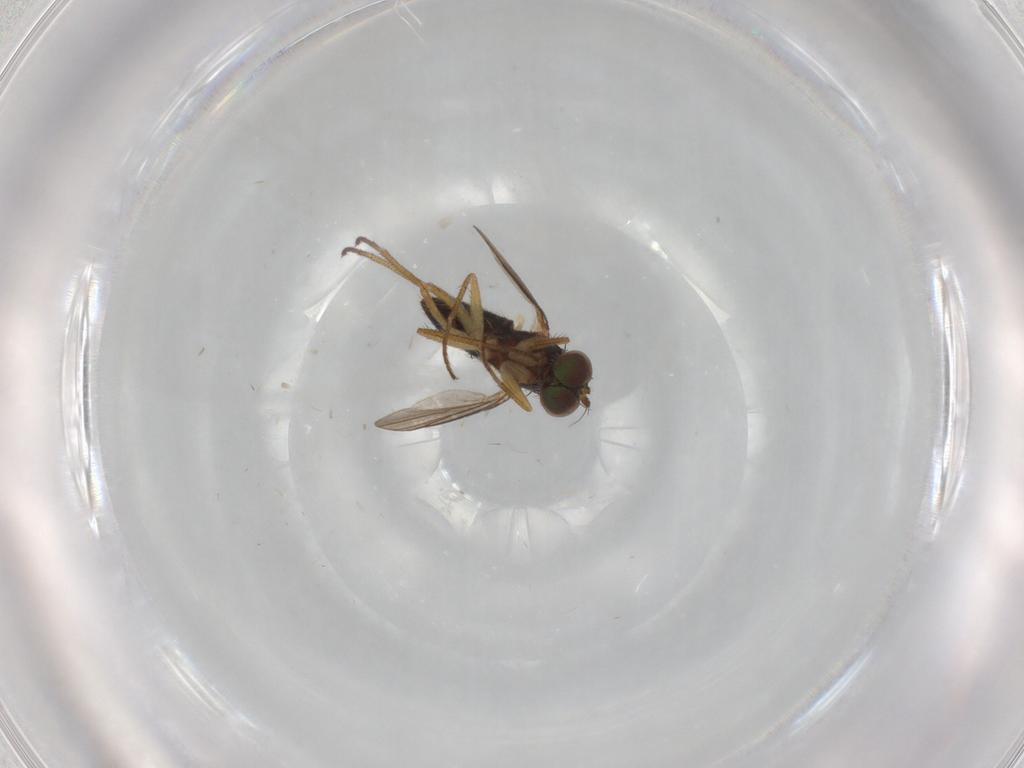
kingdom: Animalia
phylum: Arthropoda
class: Insecta
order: Diptera
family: Dolichopodidae
